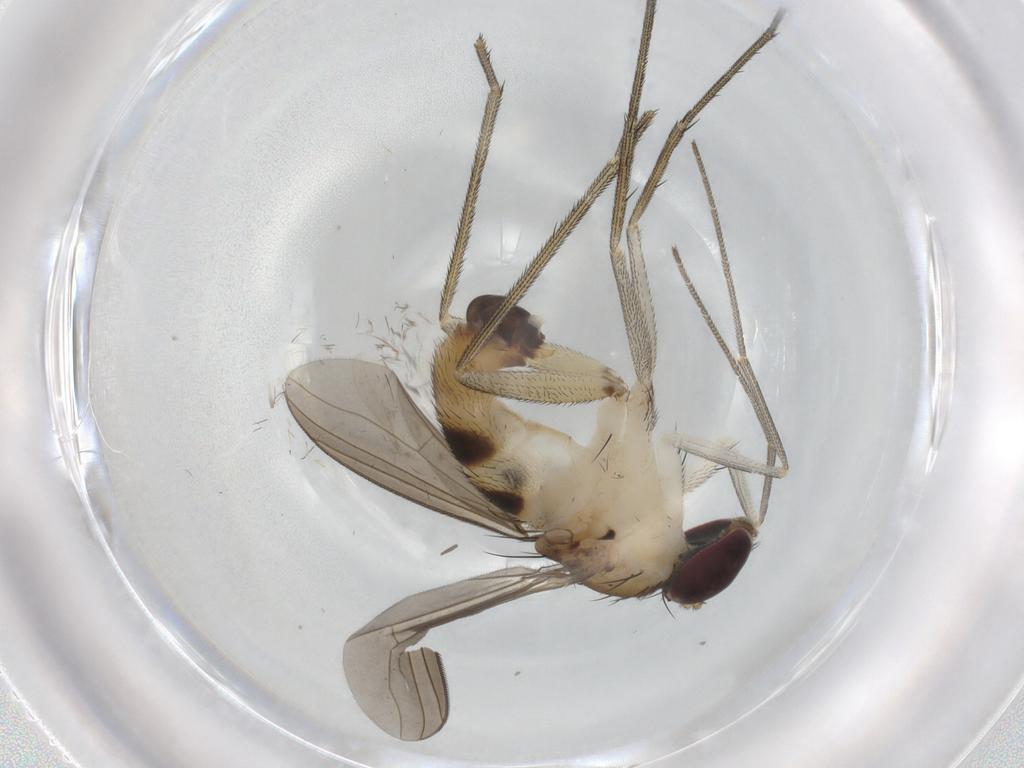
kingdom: Animalia
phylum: Arthropoda
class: Insecta
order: Diptera
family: Dolichopodidae
